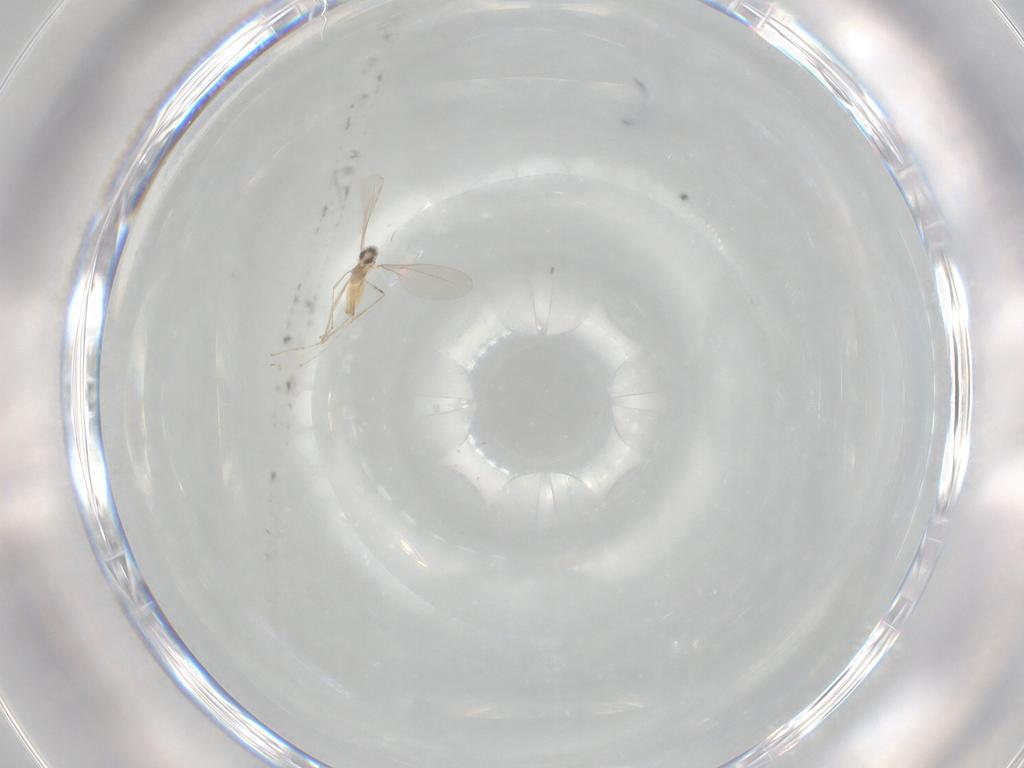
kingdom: Animalia
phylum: Arthropoda
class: Insecta
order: Diptera
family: Cecidomyiidae
